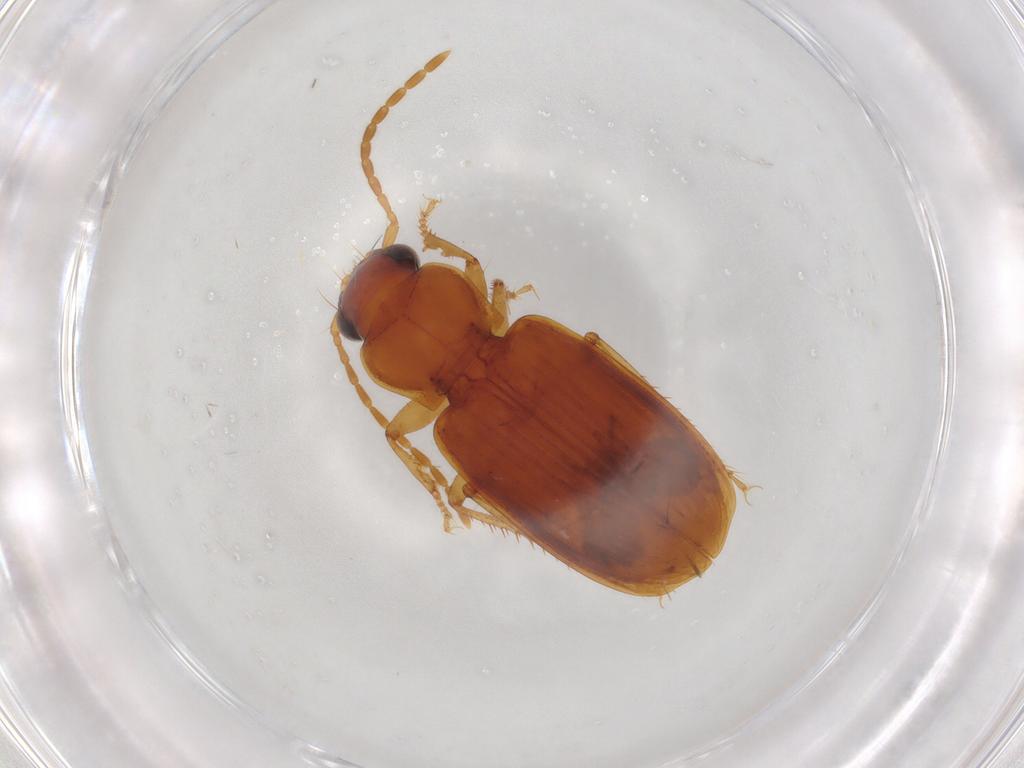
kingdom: Animalia
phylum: Arthropoda
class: Insecta
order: Coleoptera
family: Carabidae
